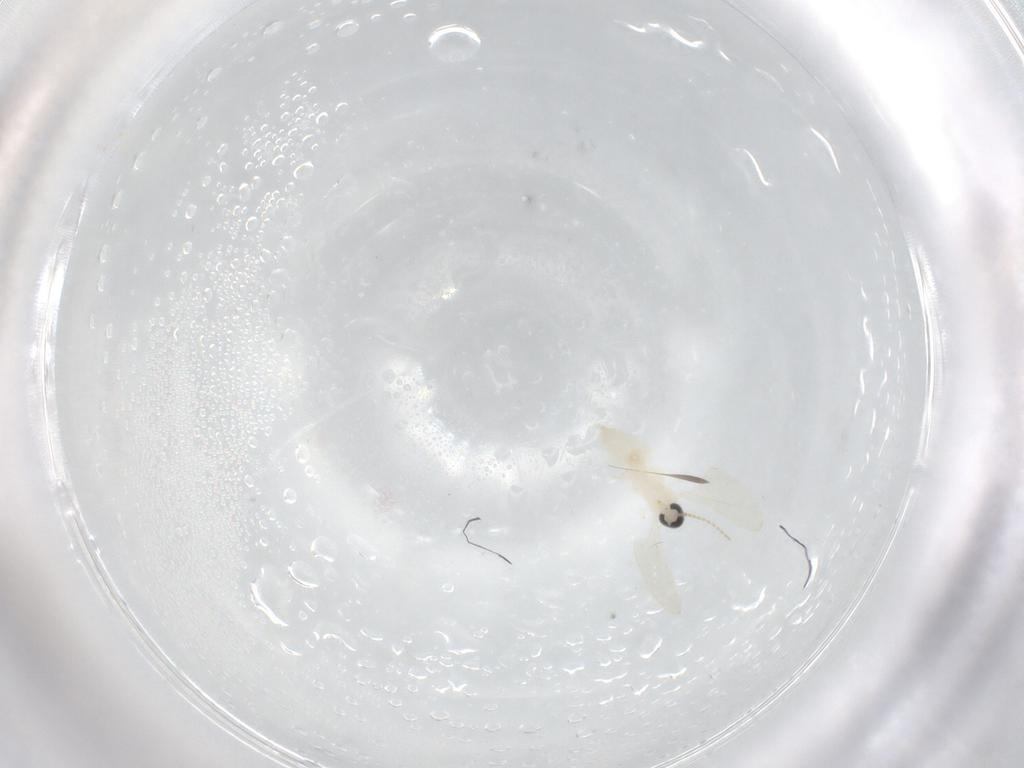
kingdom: Animalia
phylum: Arthropoda
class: Insecta
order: Diptera
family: Cecidomyiidae
